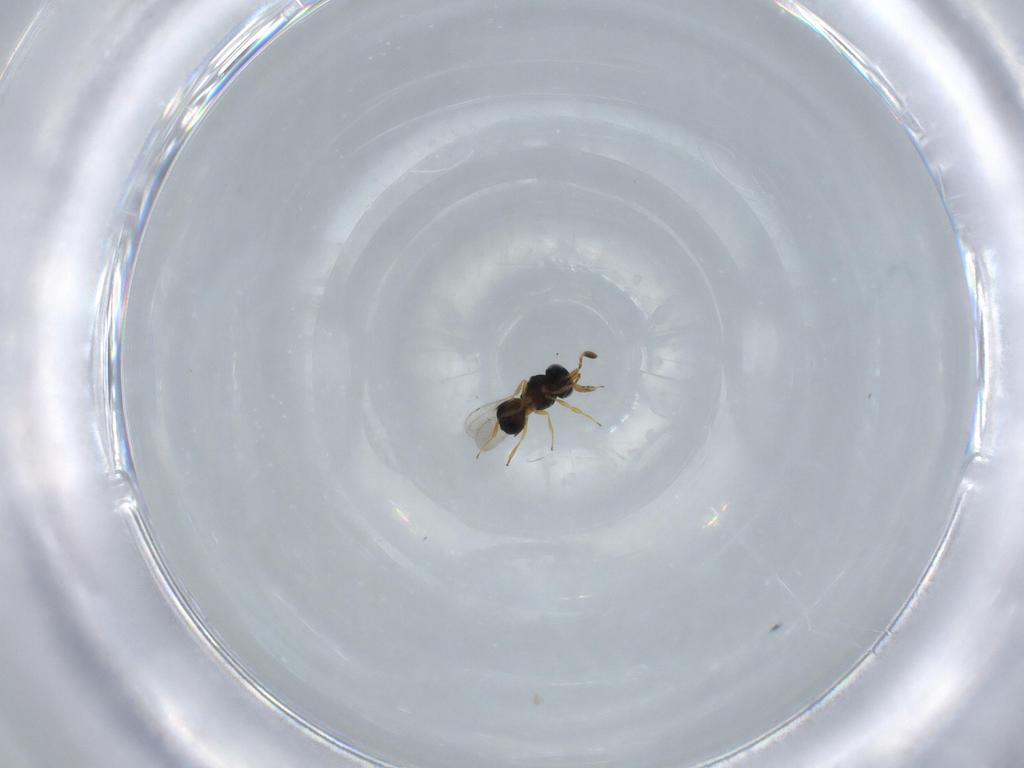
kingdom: Animalia
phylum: Arthropoda
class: Insecta
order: Hymenoptera
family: Scelionidae
